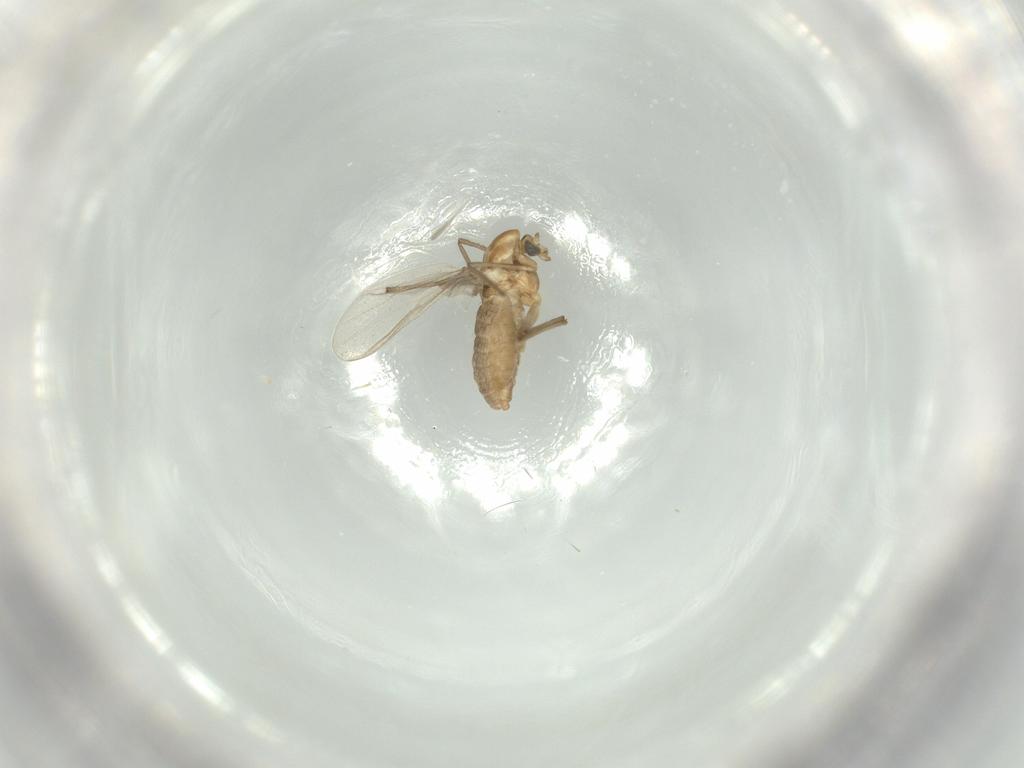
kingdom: Animalia
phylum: Arthropoda
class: Insecta
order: Diptera
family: Chironomidae
